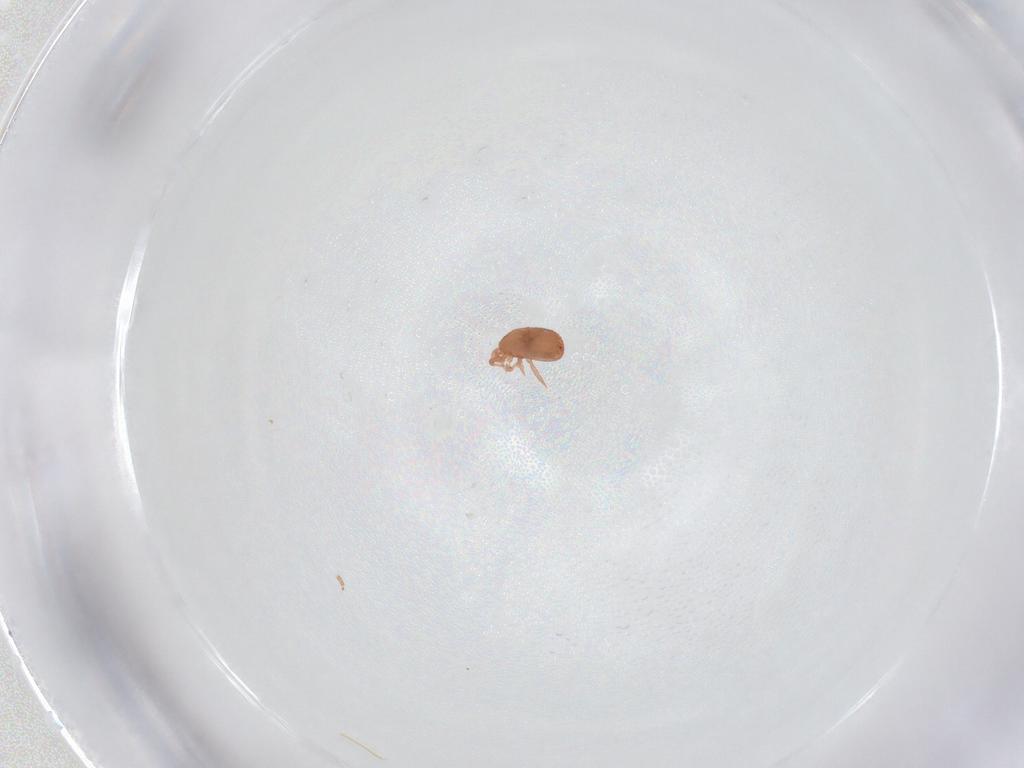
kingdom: Animalia
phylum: Arthropoda
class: Arachnida
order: Mesostigmata
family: Zerconidae
